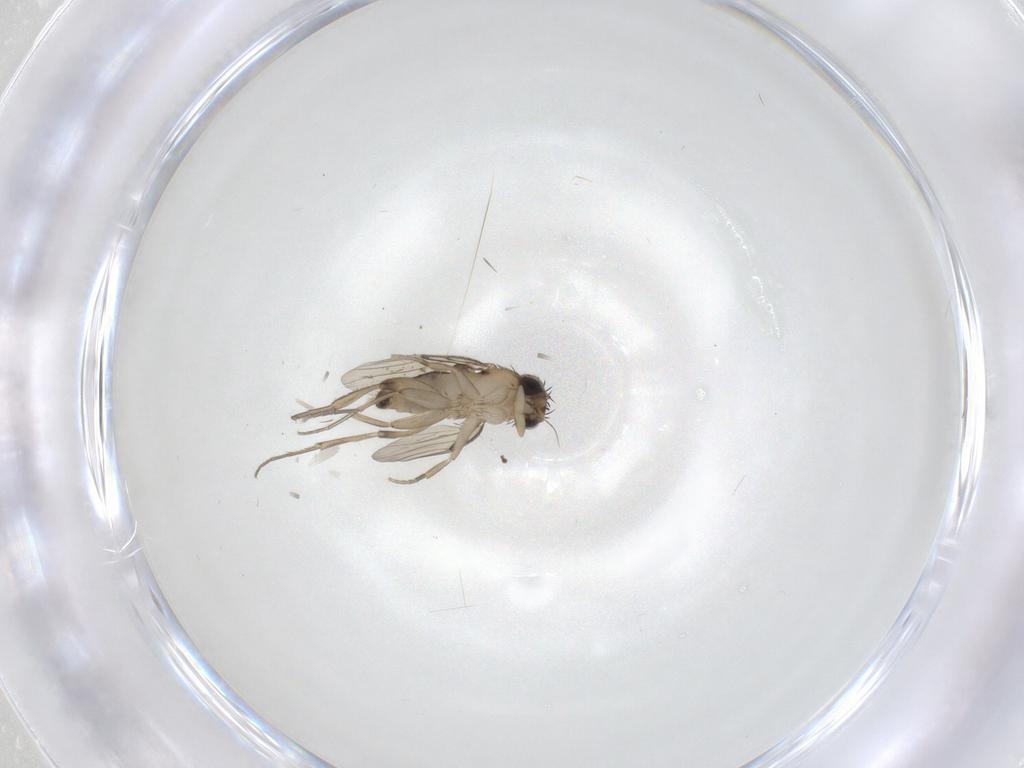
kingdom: Animalia
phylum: Arthropoda
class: Insecta
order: Diptera
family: Phoridae
